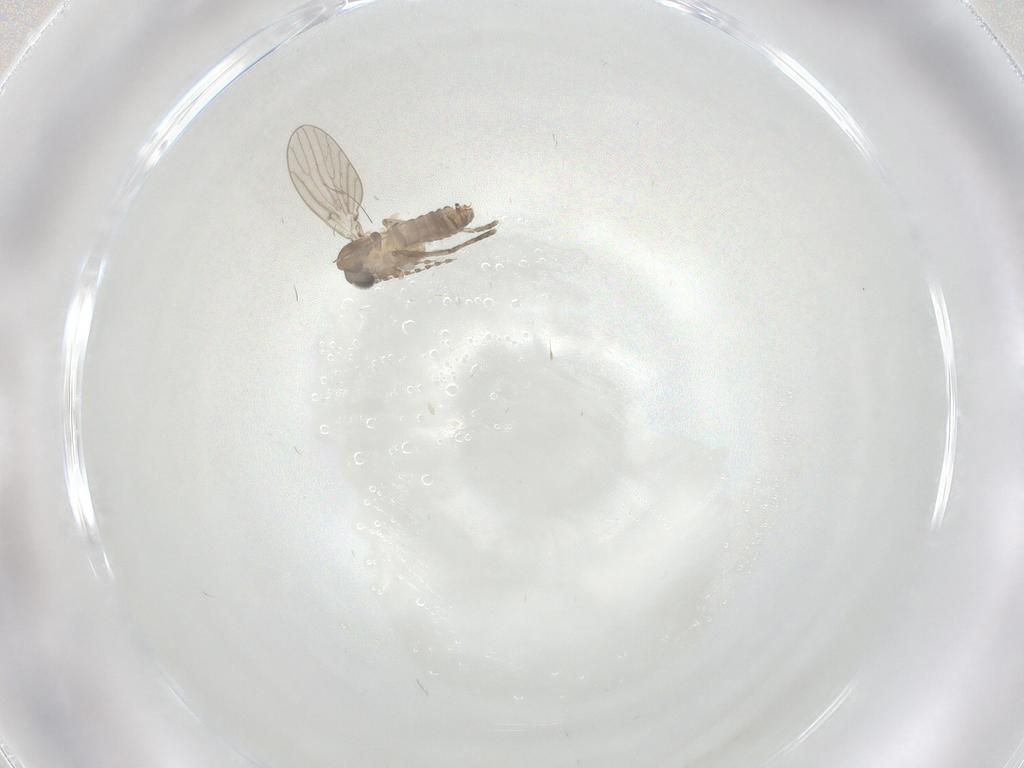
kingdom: Animalia
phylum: Arthropoda
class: Insecta
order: Diptera
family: Psychodidae
